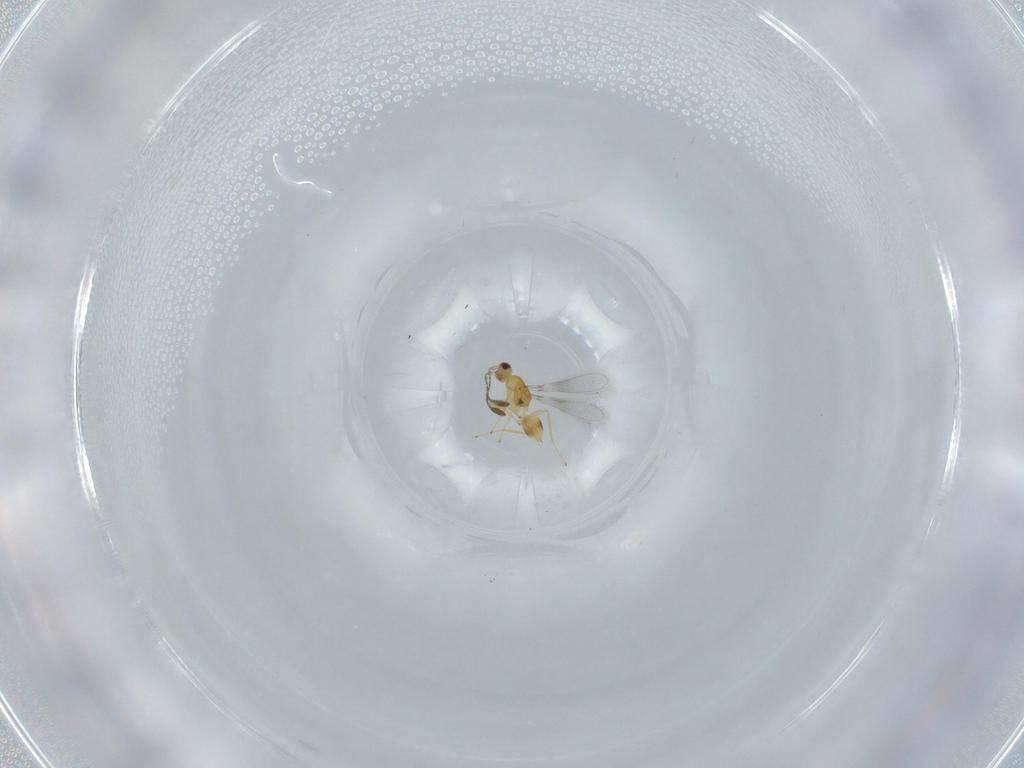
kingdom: Animalia
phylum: Arthropoda
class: Insecta
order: Hymenoptera
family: Mymaridae
